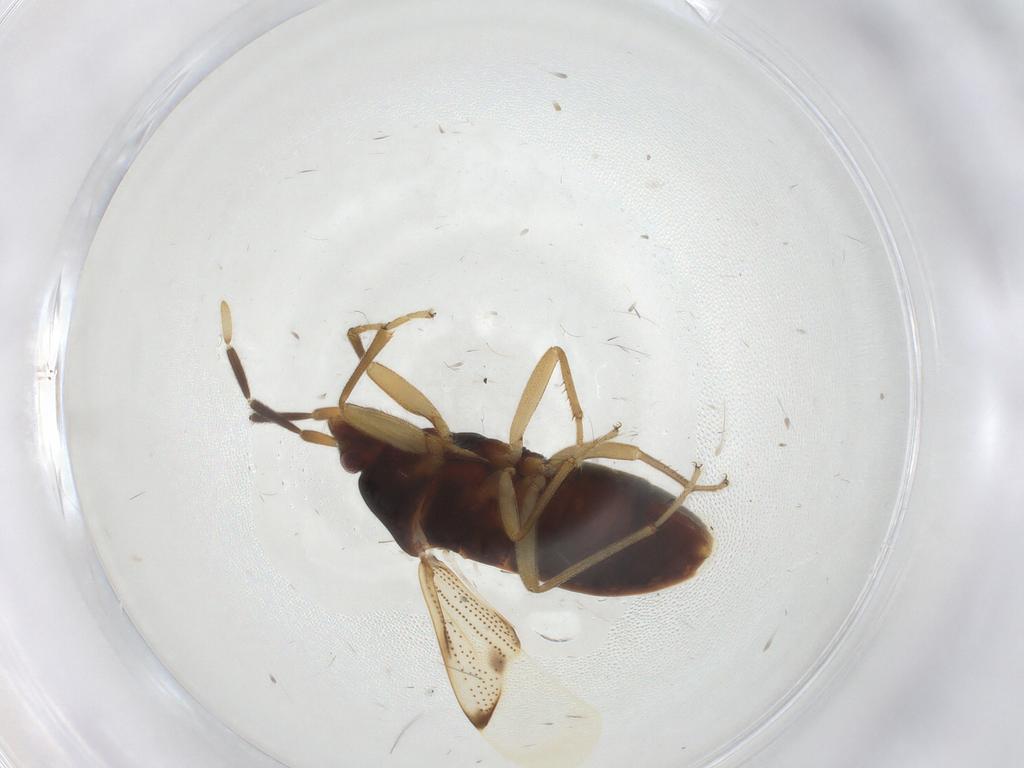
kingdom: Animalia
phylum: Arthropoda
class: Insecta
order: Hemiptera
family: Rhyparochromidae
